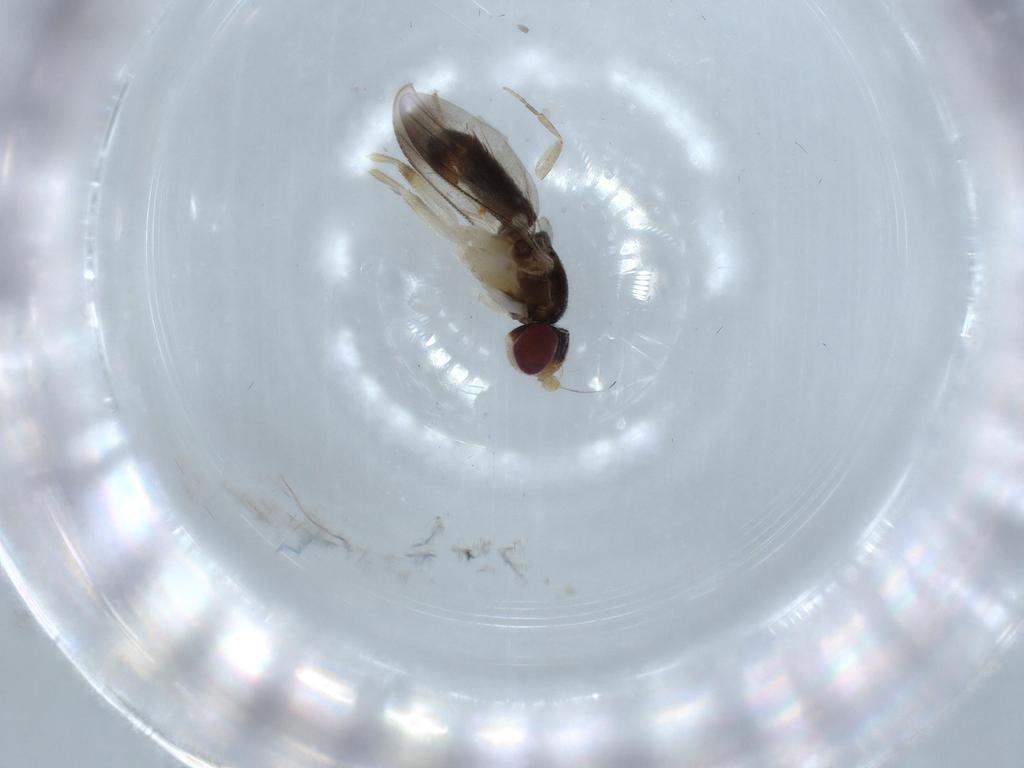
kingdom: Animalia
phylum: Arthropoda
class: Insecta
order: Diptera
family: Clusiidae
